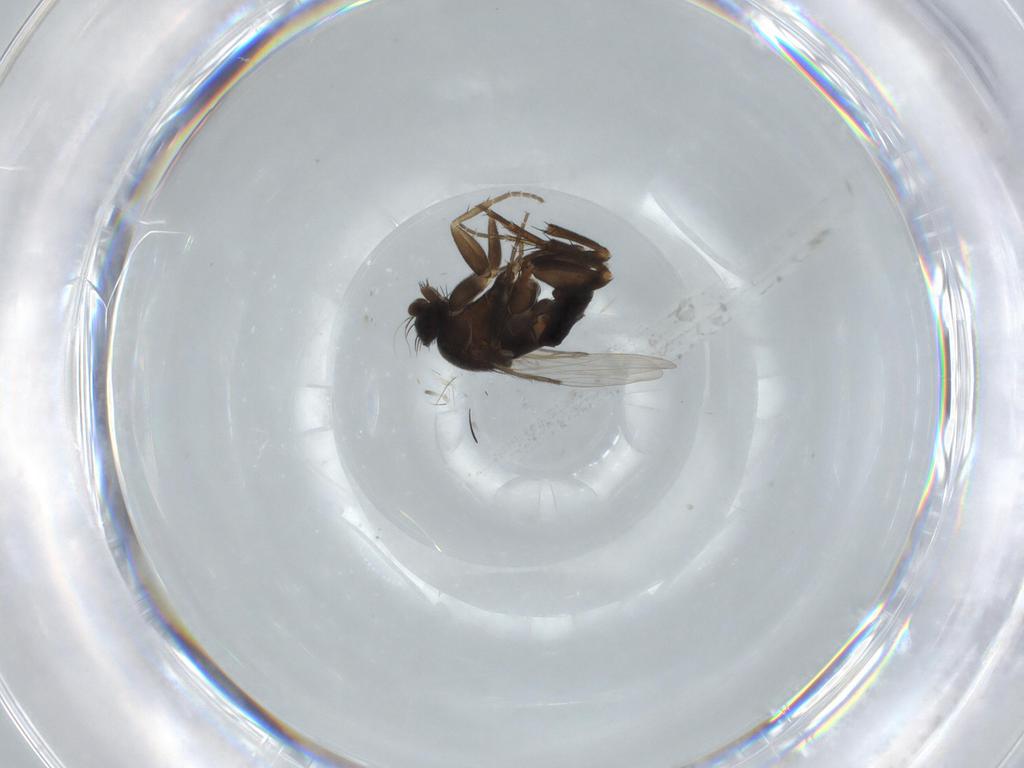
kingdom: Animalia
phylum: Arthropoda
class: Insecta
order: Diptera
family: Phoridae
